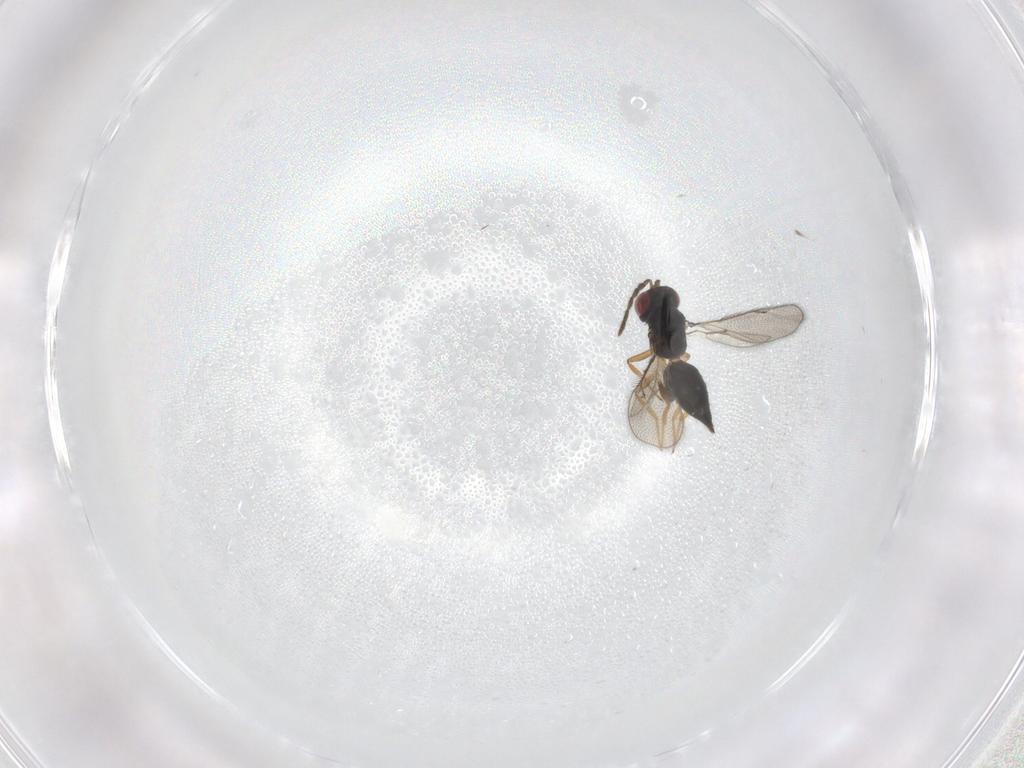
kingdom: Animalia
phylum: Arthropoda
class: Insecta
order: Hymenoptera
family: Eulophidae
